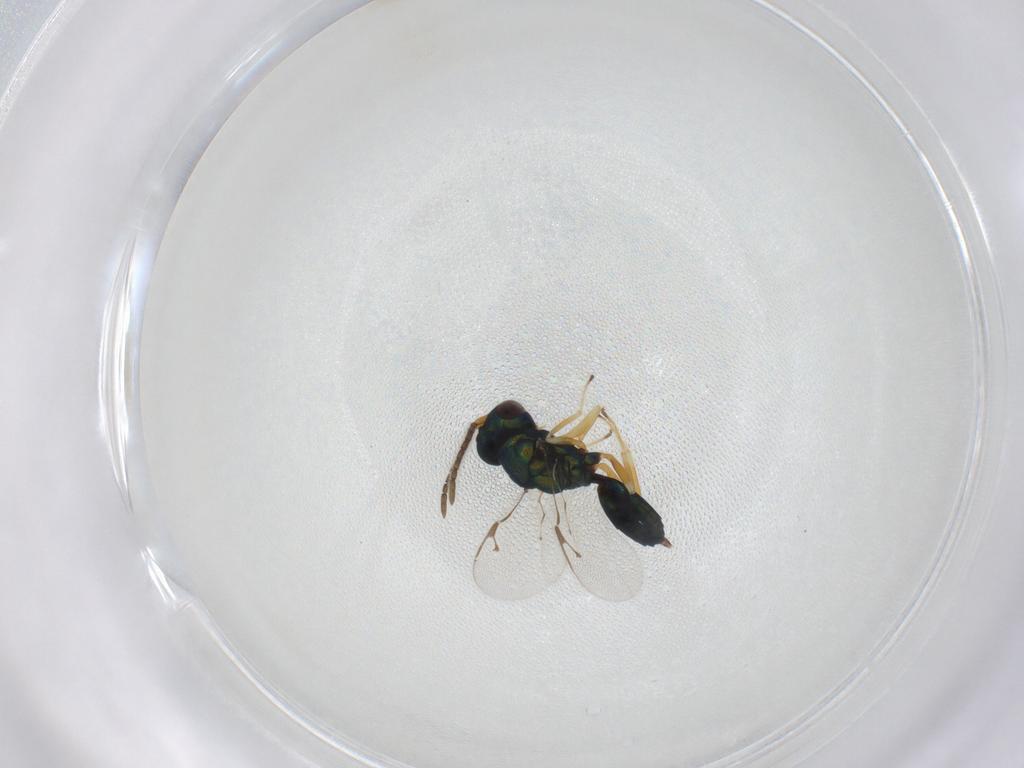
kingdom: Animalia
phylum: Arthropoda
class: Insecta
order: Hymenoptera
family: Pteromalidae
